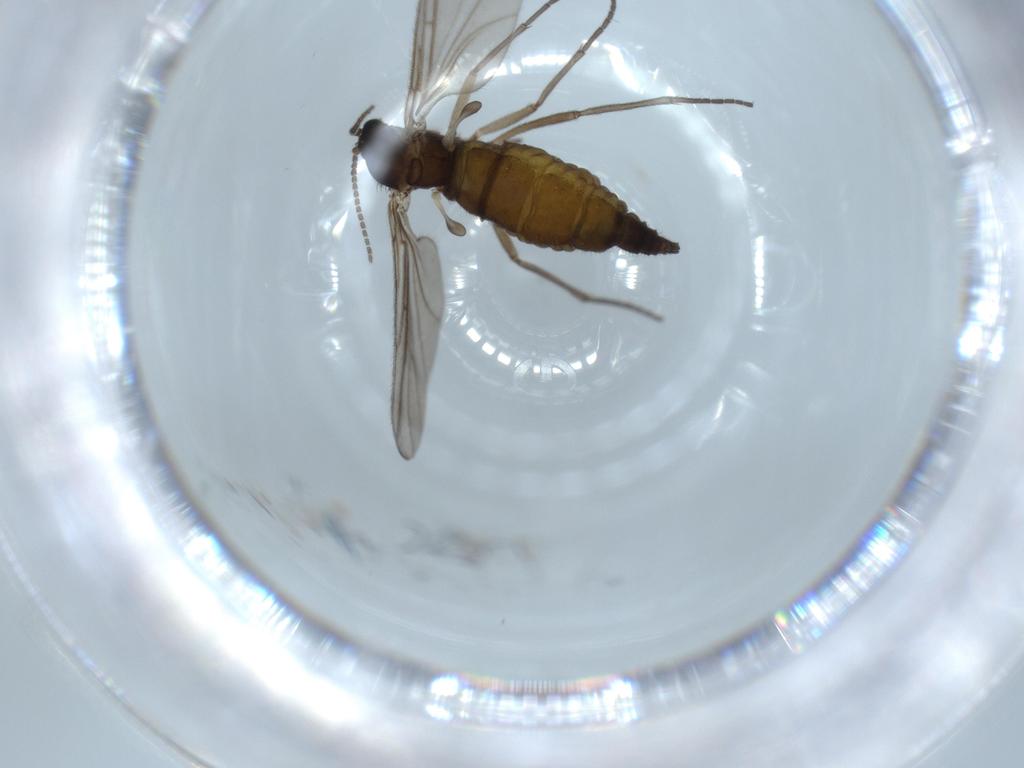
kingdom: Animalia
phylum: Arthropoda
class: Insecta
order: Diptera
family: Sciaridae
